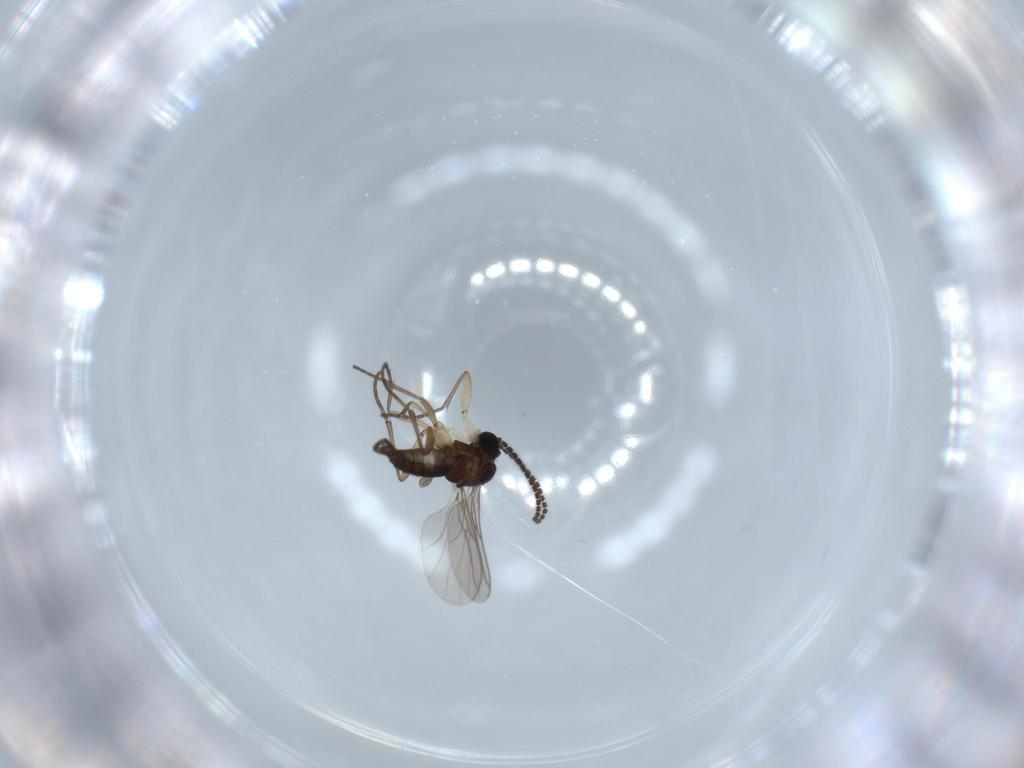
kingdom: Animalia
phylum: Arthropoda
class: Insecta
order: Diptera
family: Sciaridae
